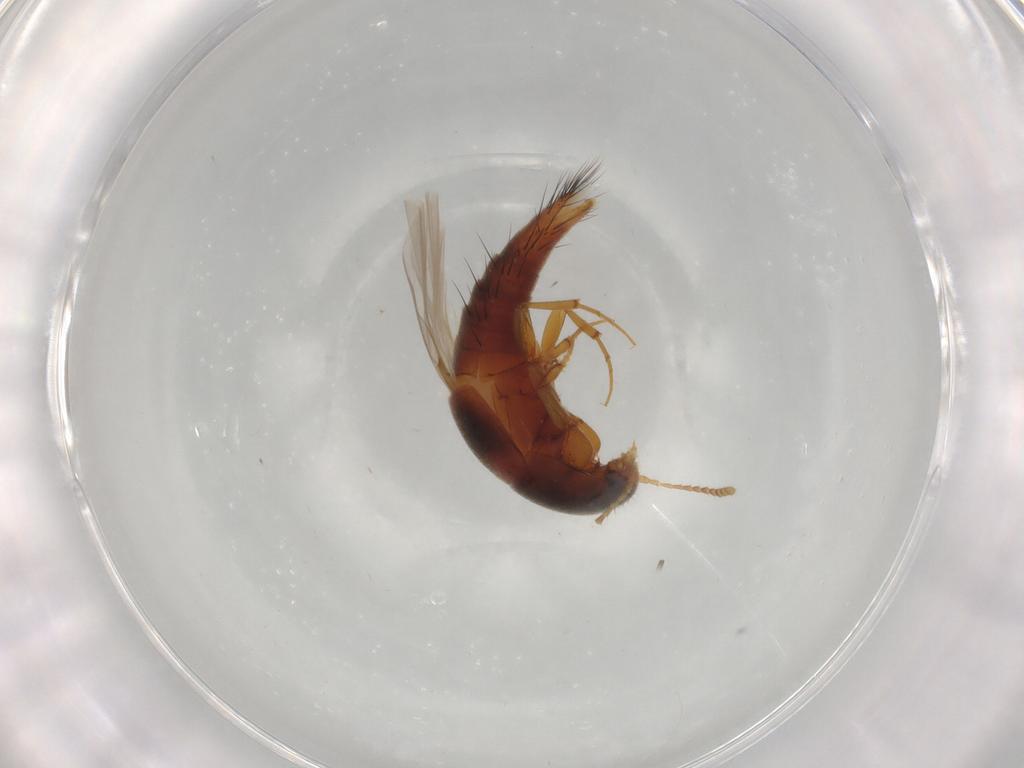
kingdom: Animalia
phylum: Arthropoda
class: Insecta
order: Coleoptera
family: Staphylinidae
